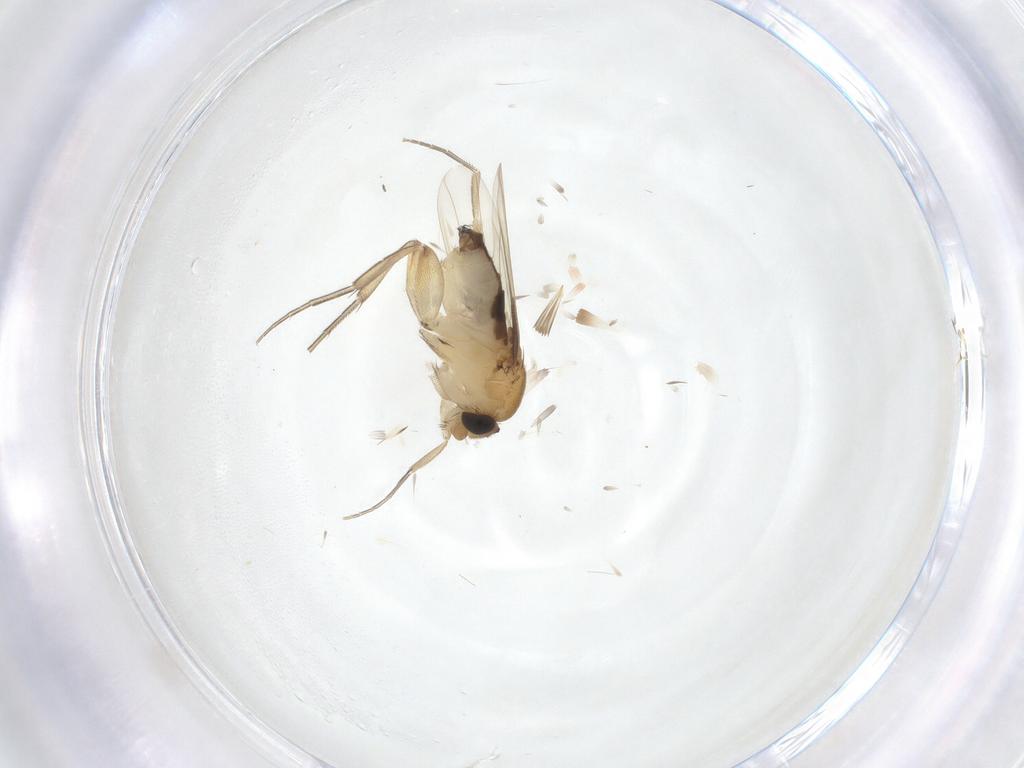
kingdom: Animalia
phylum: Arthropoda
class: Insecta
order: Diptera
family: Phoridae
